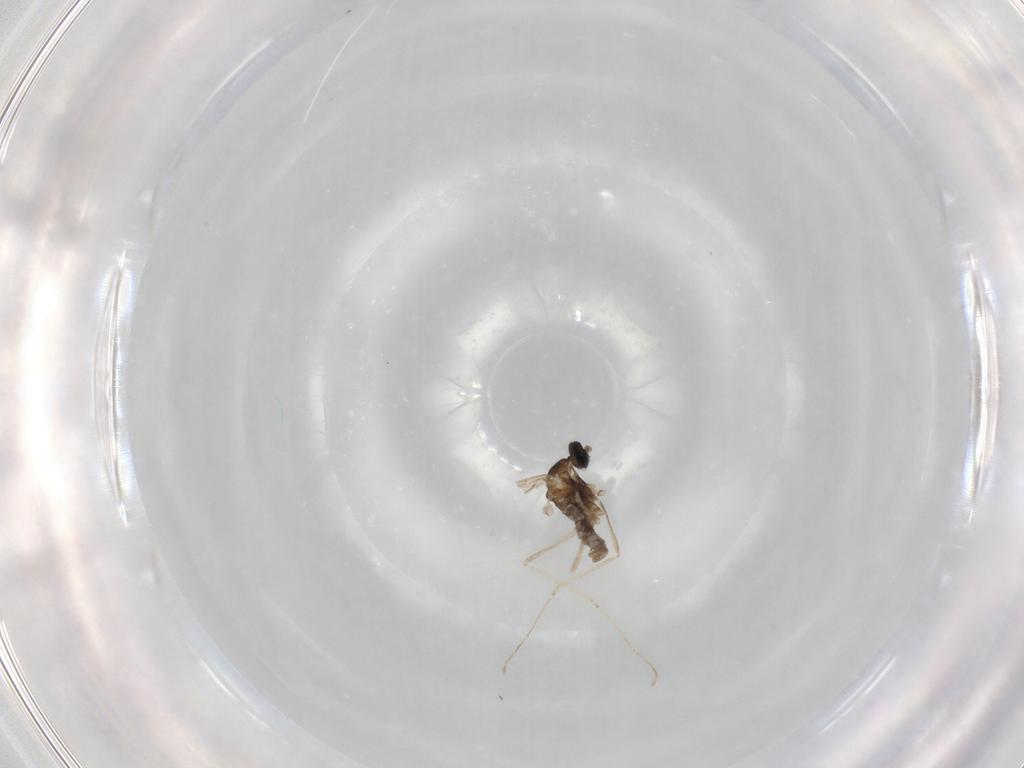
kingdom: Animalia
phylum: Arthropoda
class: Insecta
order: Diptera
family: Cecidomyiidae
